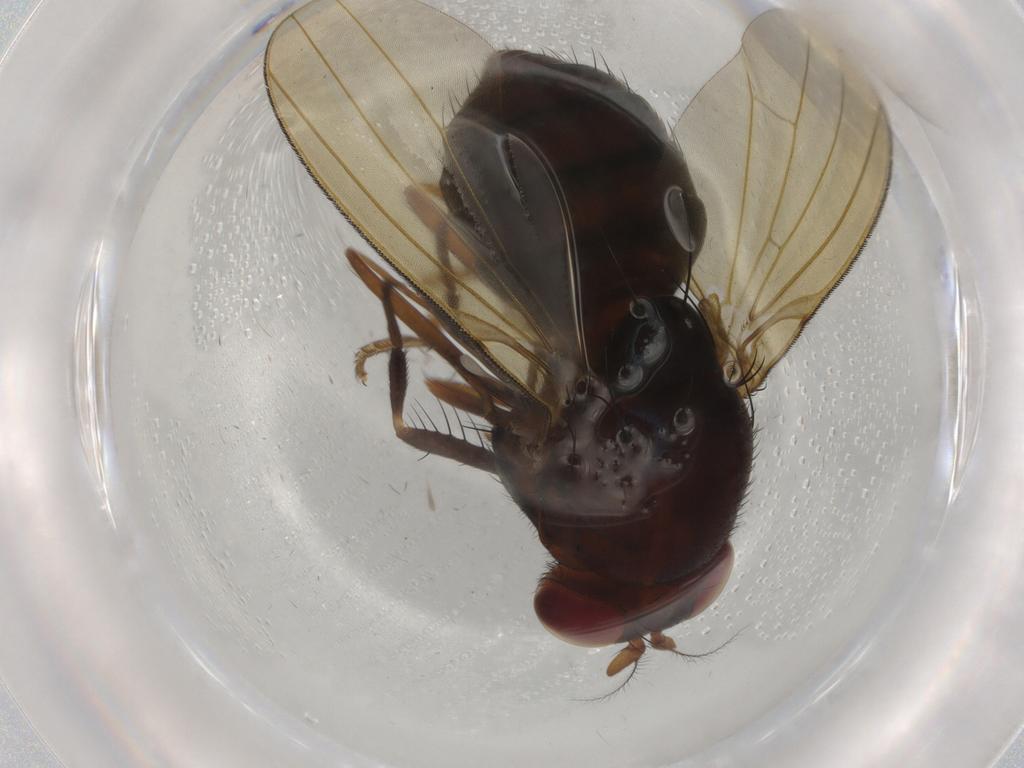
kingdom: Animalia
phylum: Arthropoda
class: Insecta
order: Diptera
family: Lauxaniidae
